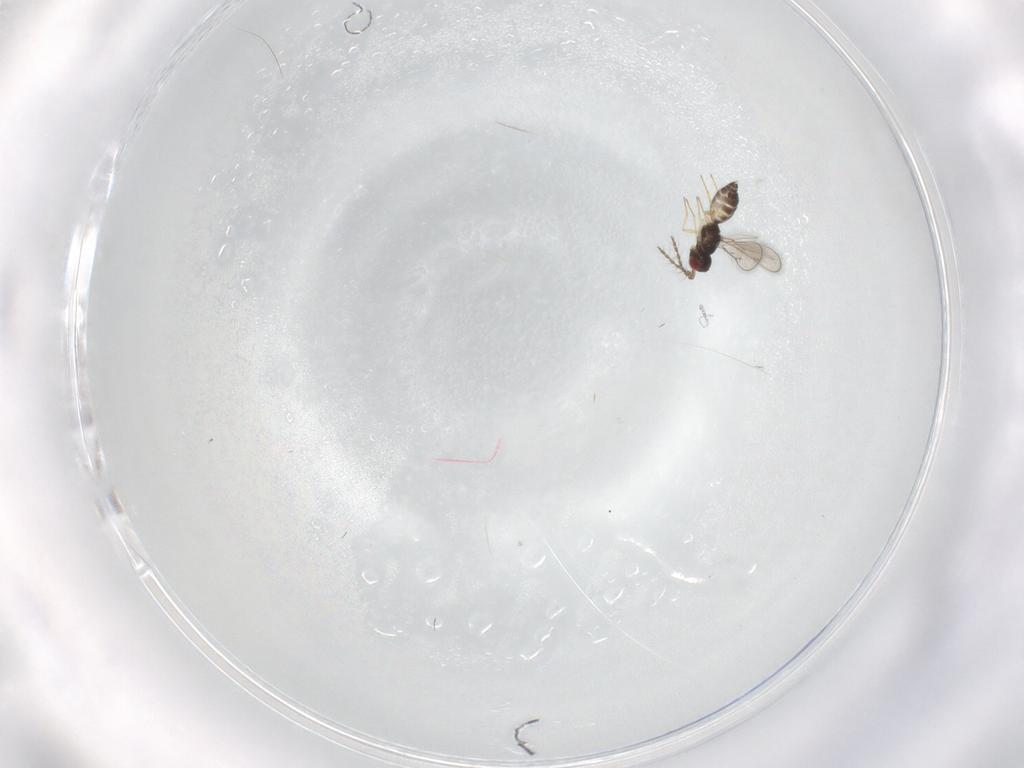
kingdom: Animalia
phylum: Arthropoda
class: Insecta
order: Hymenoptera
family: Eulophidae
